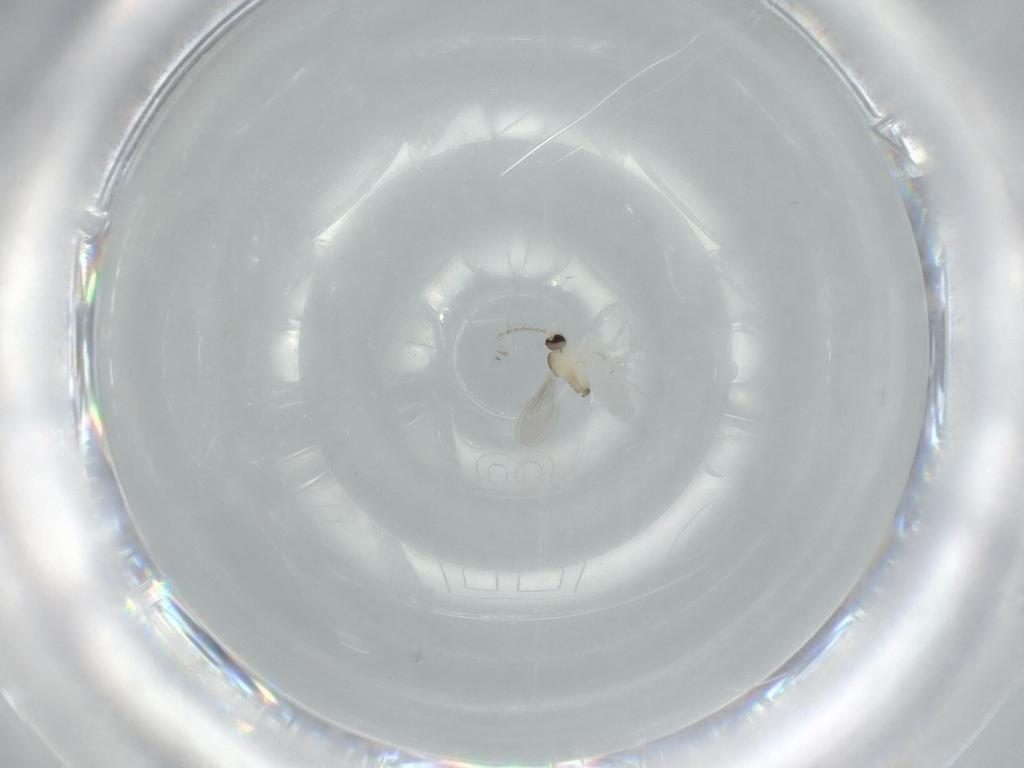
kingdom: Animalia
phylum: Arthropoda
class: Insecta
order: Diptera
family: Cecidomyiidae
